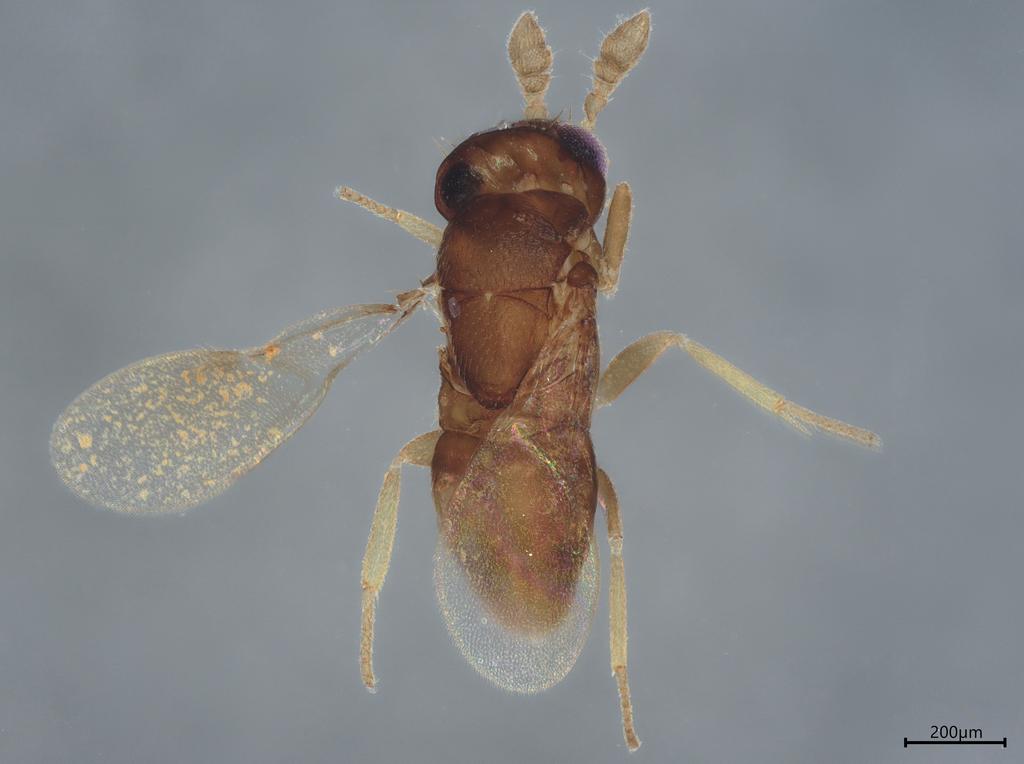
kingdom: Animalia
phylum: Arthropoda
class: Insecta
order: Hymenoptera
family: Encyrtidae
